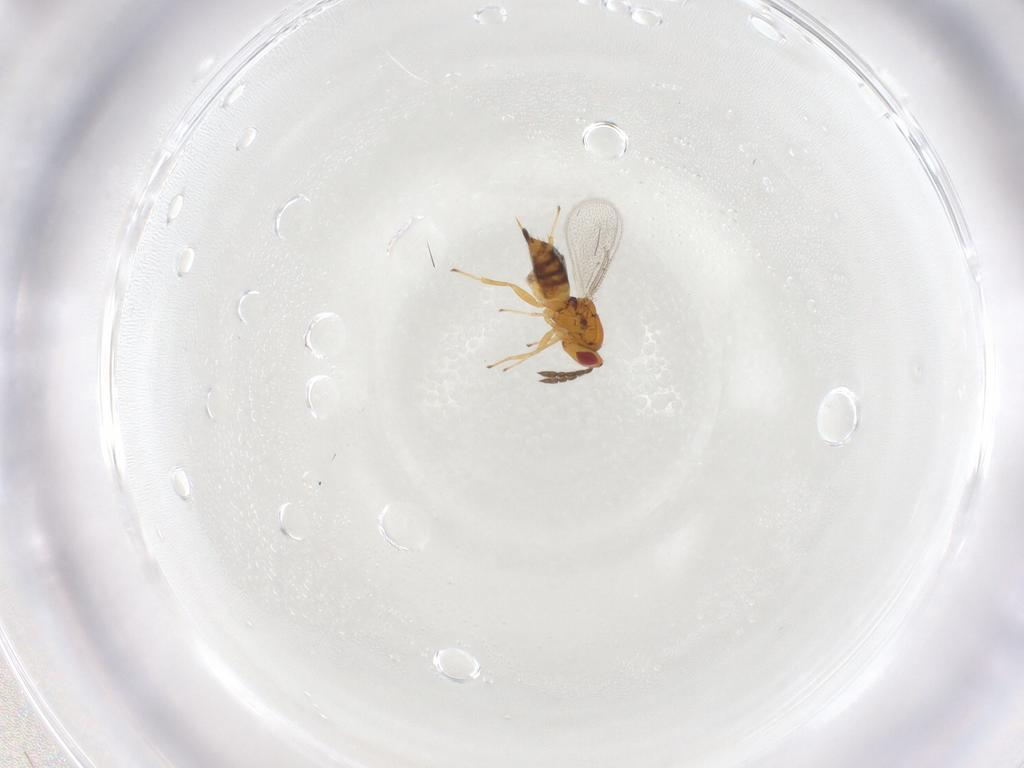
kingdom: Animalia
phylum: Arthropoda
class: Insecta
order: Hymenoptera
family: Eulophidae
